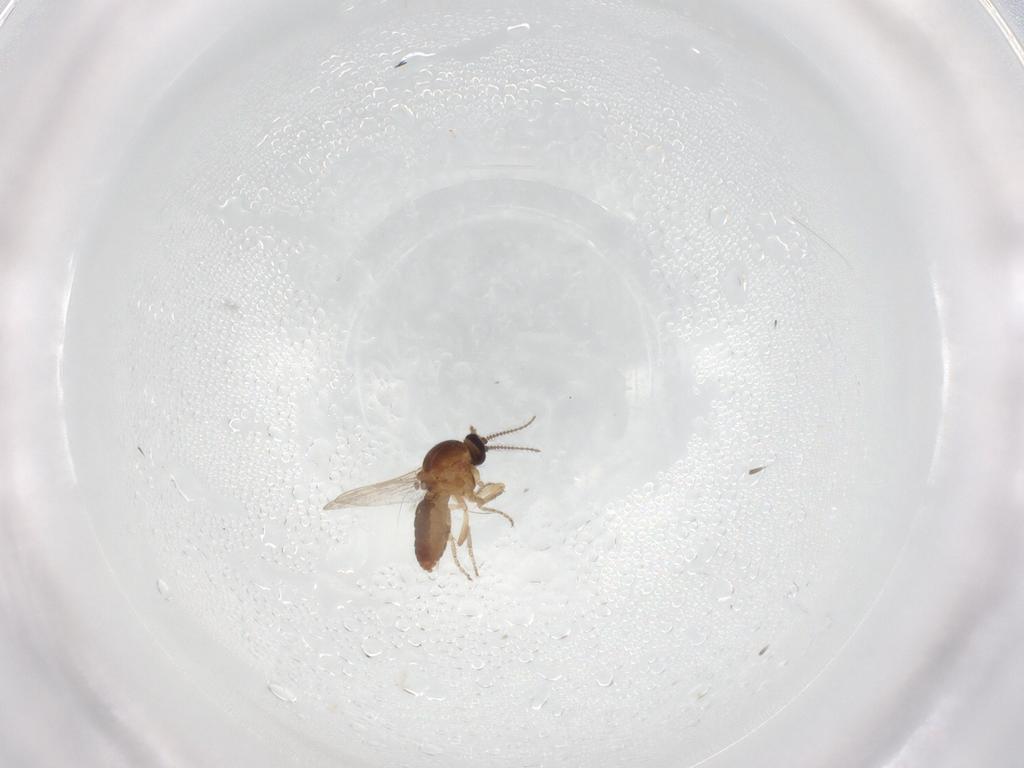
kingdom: Animalia
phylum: Arthropoda
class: Insecta
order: Diptera
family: Ceratopogonidae
